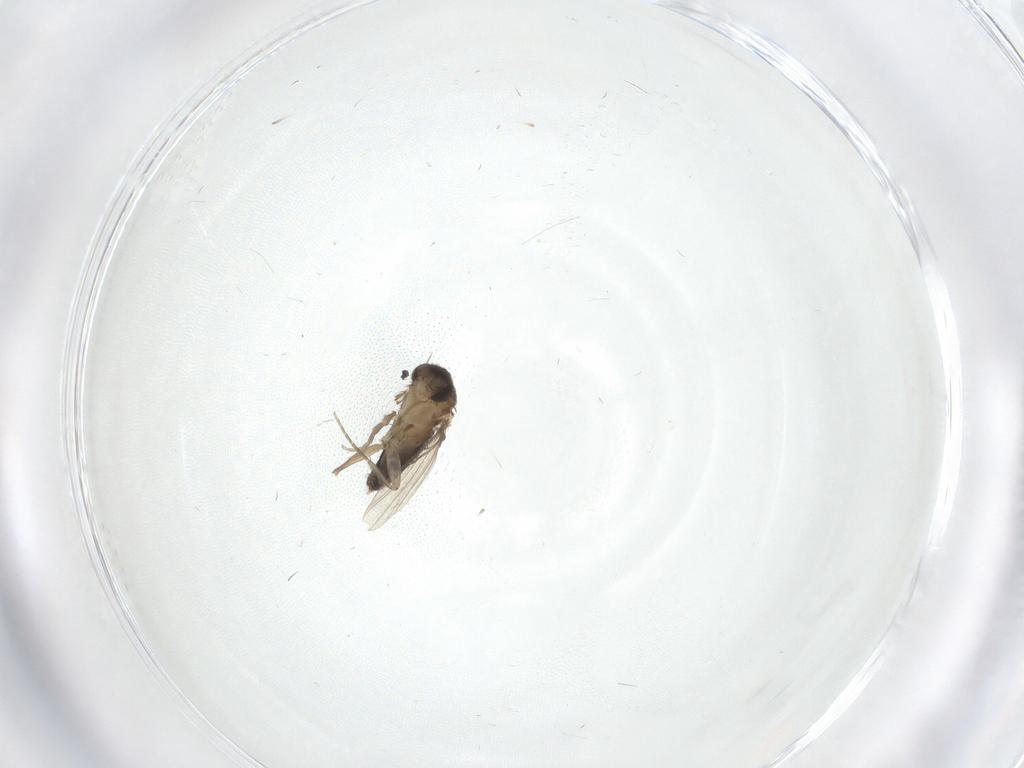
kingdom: Animalia
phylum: Arthropoda
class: Insecta
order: Diptera
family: Phoridae
